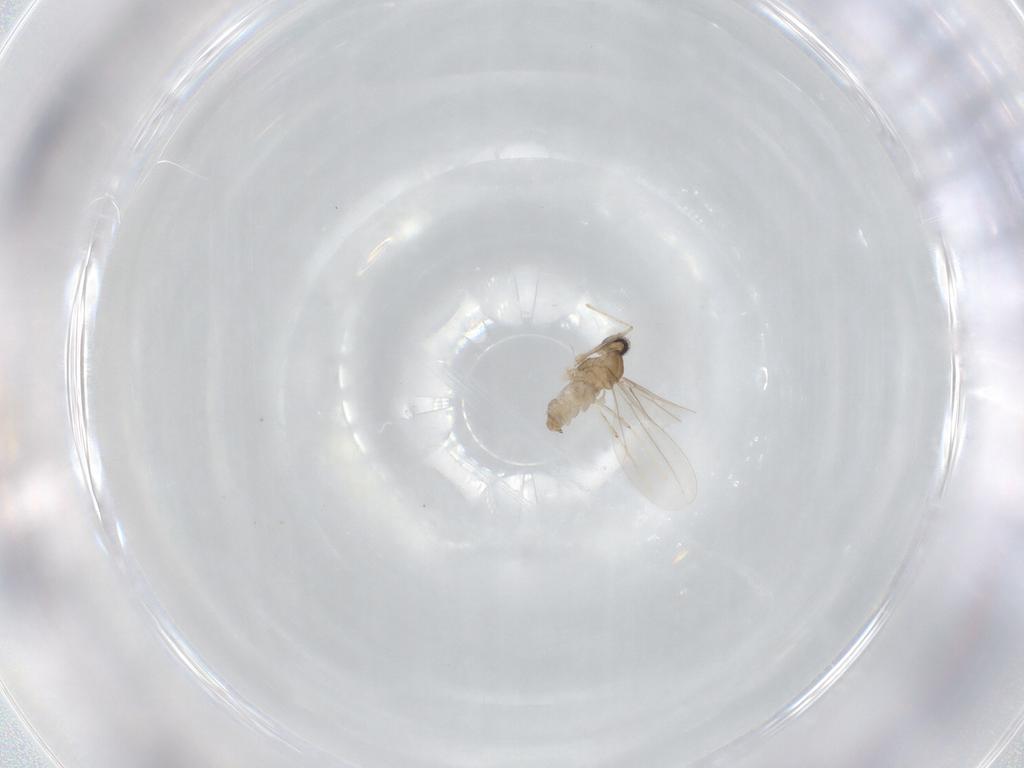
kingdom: Animalia
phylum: Arthropoda
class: Insecta
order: Diptera
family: Cecidomyiidae
